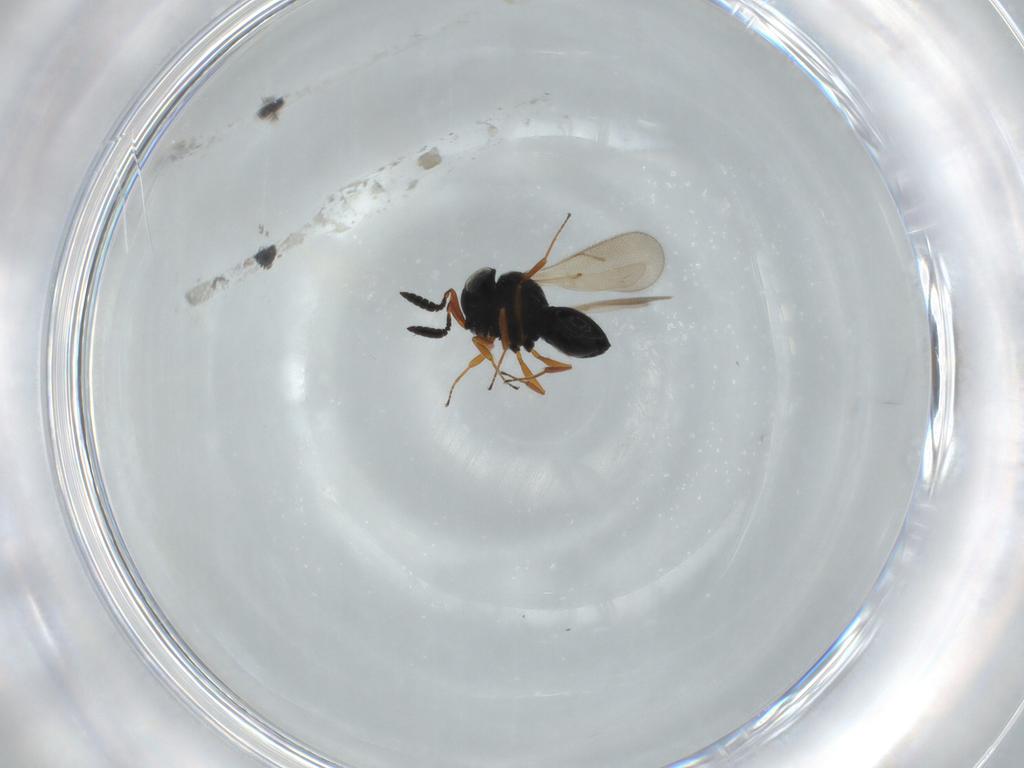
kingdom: Animalia
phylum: Arthropoda
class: Insecta
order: Hymenoptera
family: Scelionidae
